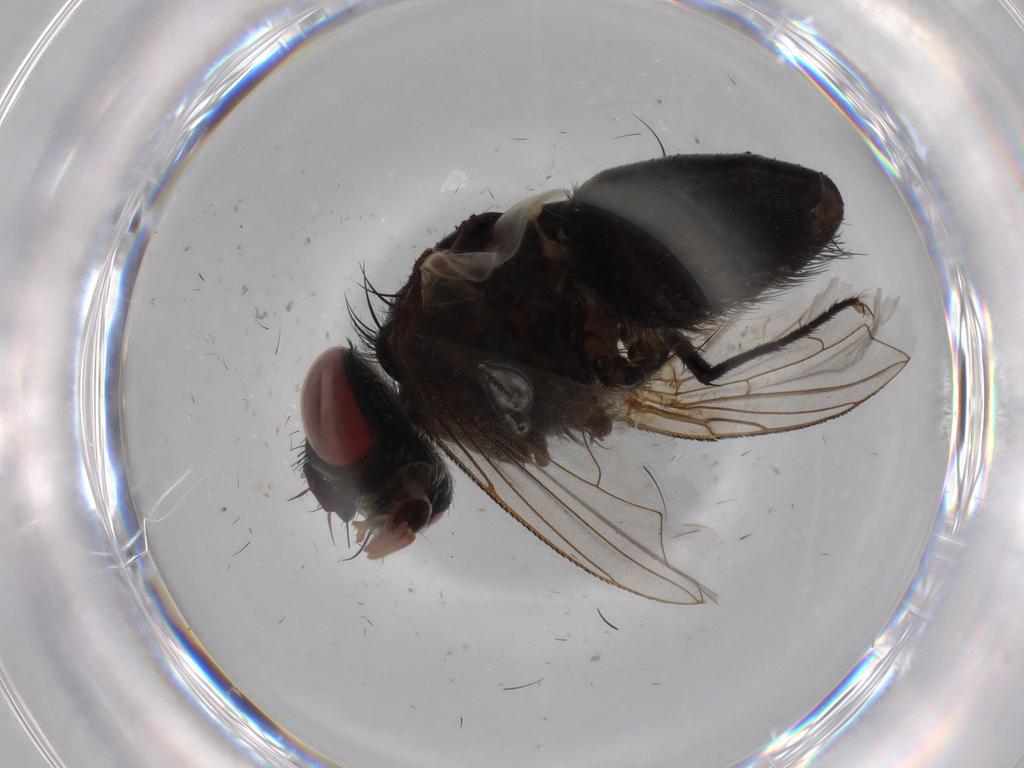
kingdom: Animalia
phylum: Arthropoda
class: Insecta
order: Diptera
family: Tachinidae
